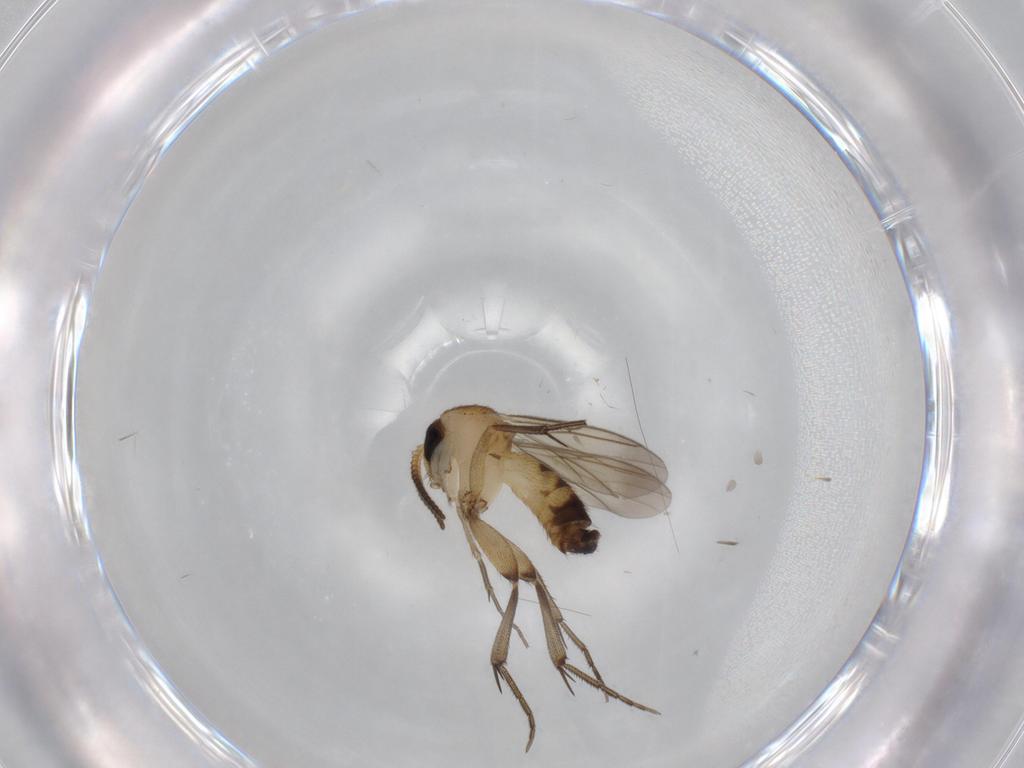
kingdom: Animalia
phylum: Arthropoda
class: Insecta
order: Diptera
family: Mycetophilidae
